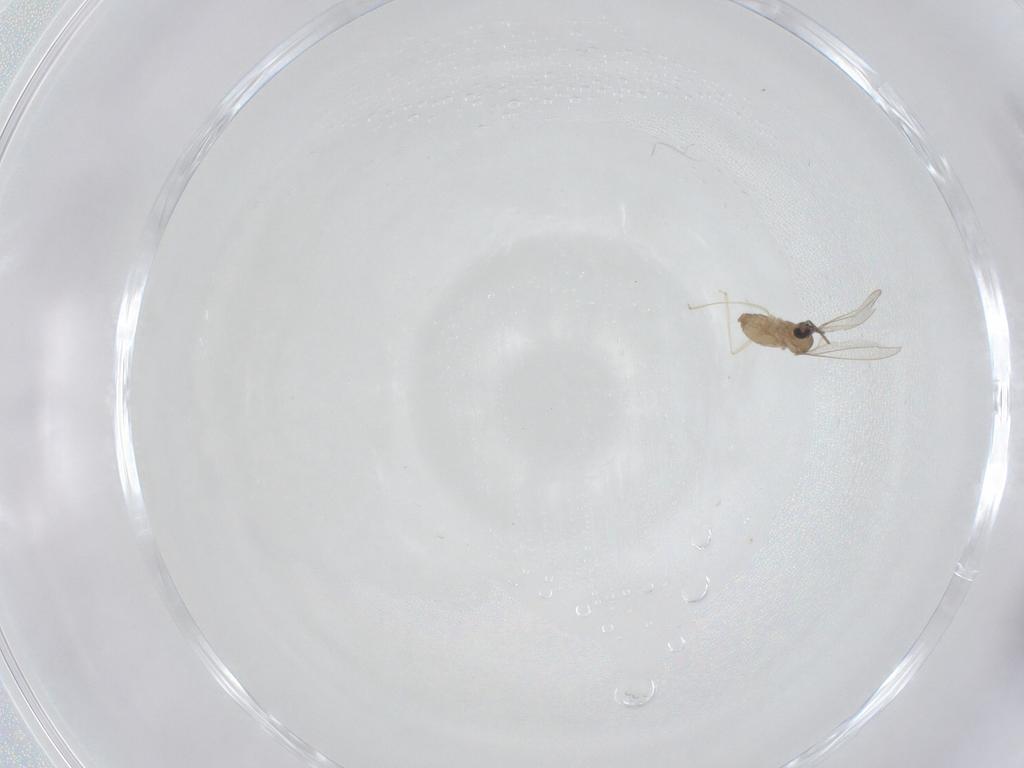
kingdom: Animalia
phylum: Arthropoda
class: Insecta
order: Diptera
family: Cecidomyiidae
